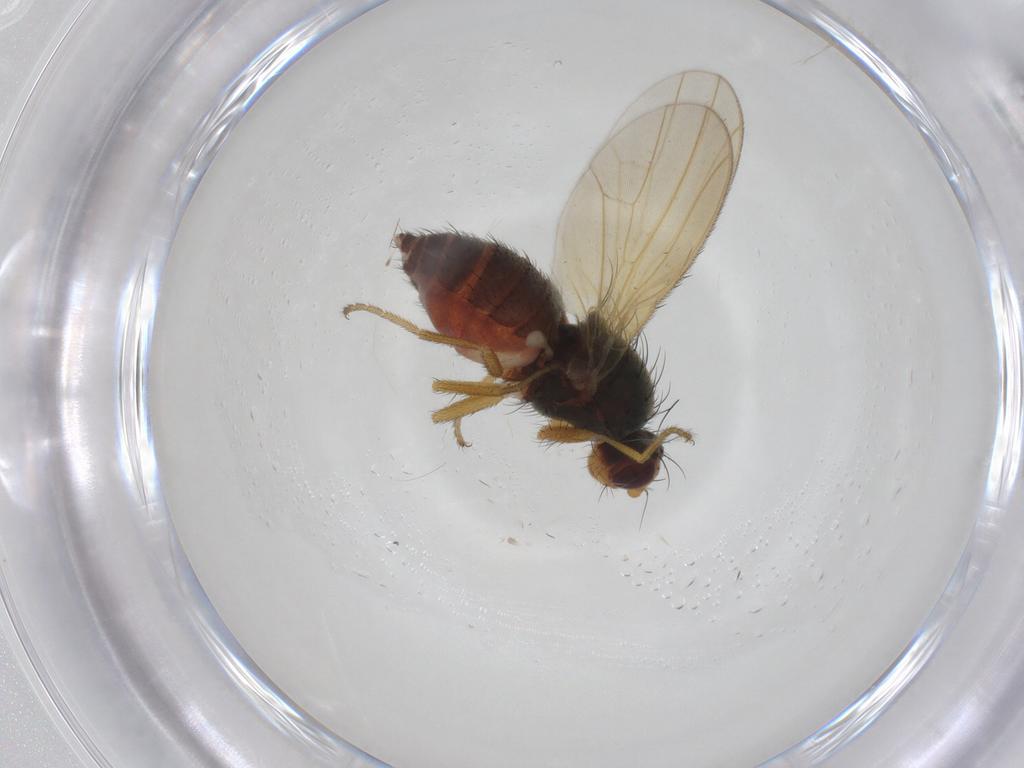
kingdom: Animalia
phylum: Arthropoda
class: Insecta
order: Diptera
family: Heleomyzidae
